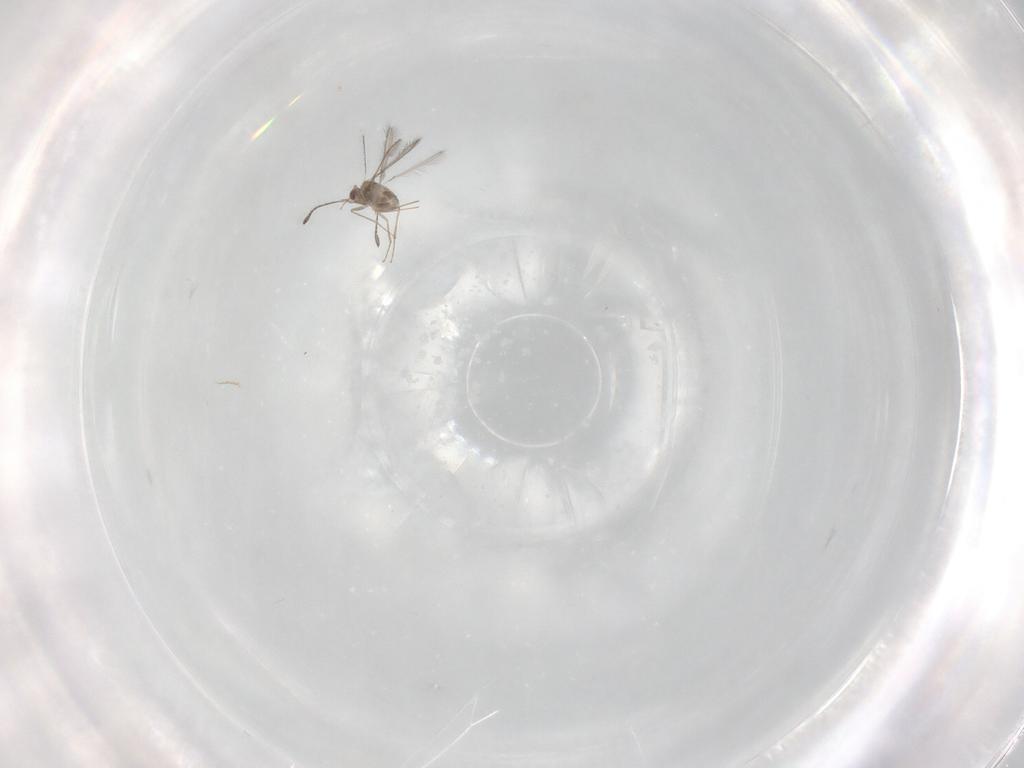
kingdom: Animalia
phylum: Arthropoda
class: Insecta
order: Hymenoptera
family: Mymaridae
